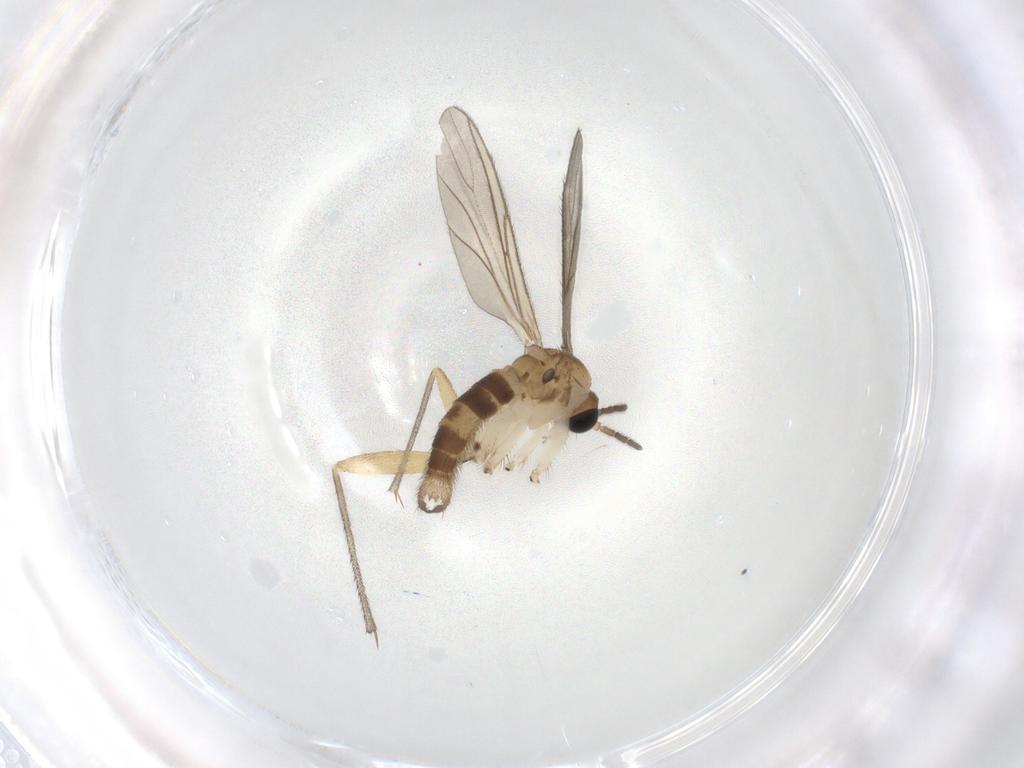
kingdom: Animalia
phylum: Arthropoda
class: Insecta
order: Diptera
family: Sciaridae
